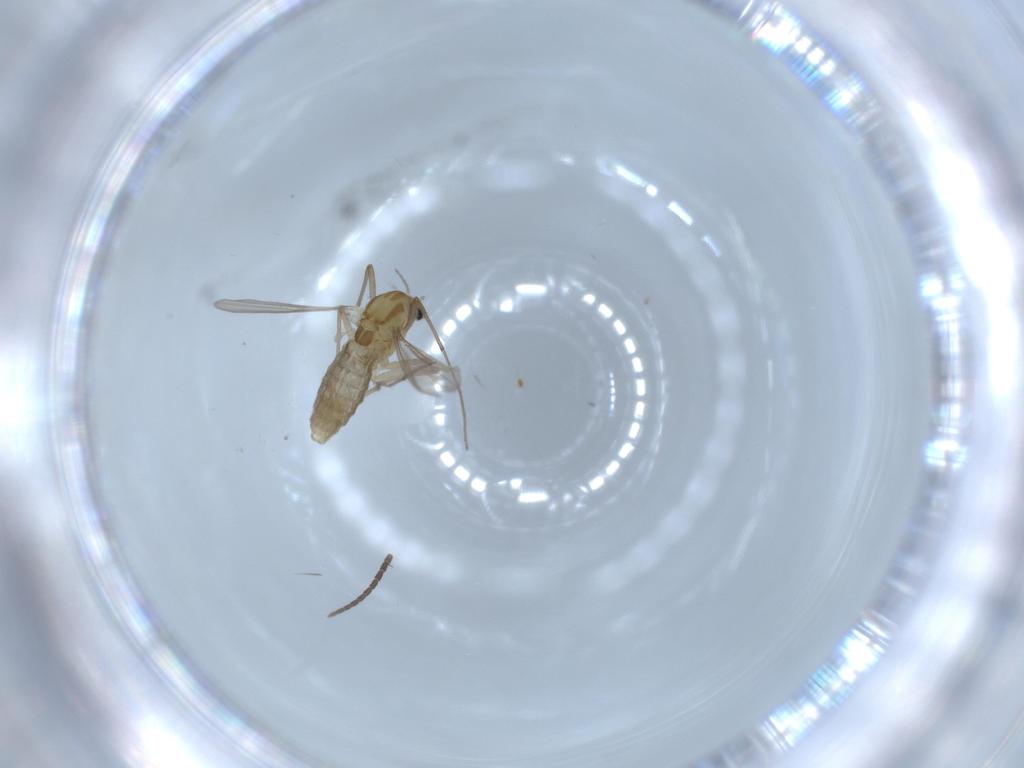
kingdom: Animalia
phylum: Arthropoda
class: Insecta
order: Diptera
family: Chironomidae
